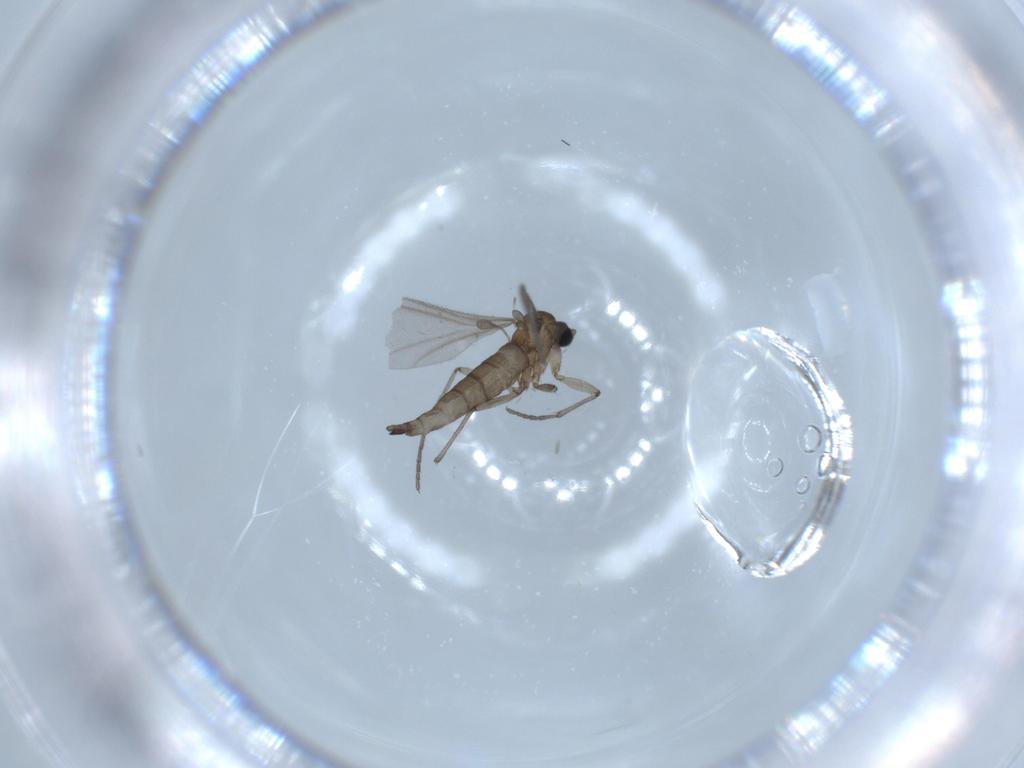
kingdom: Animalia
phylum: Arthropoda
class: Insecta
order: Diptera
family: Sciaridae
